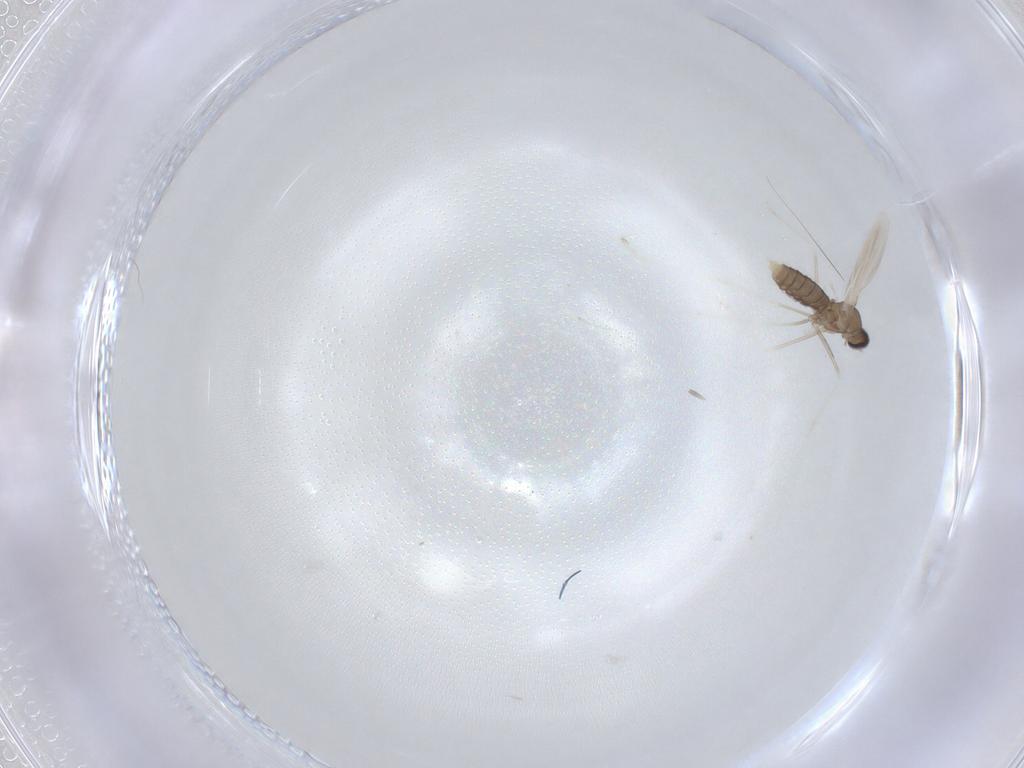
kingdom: Animalia
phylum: Arthropoda
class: Insecta
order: Diptera
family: Cecidomyiidae
